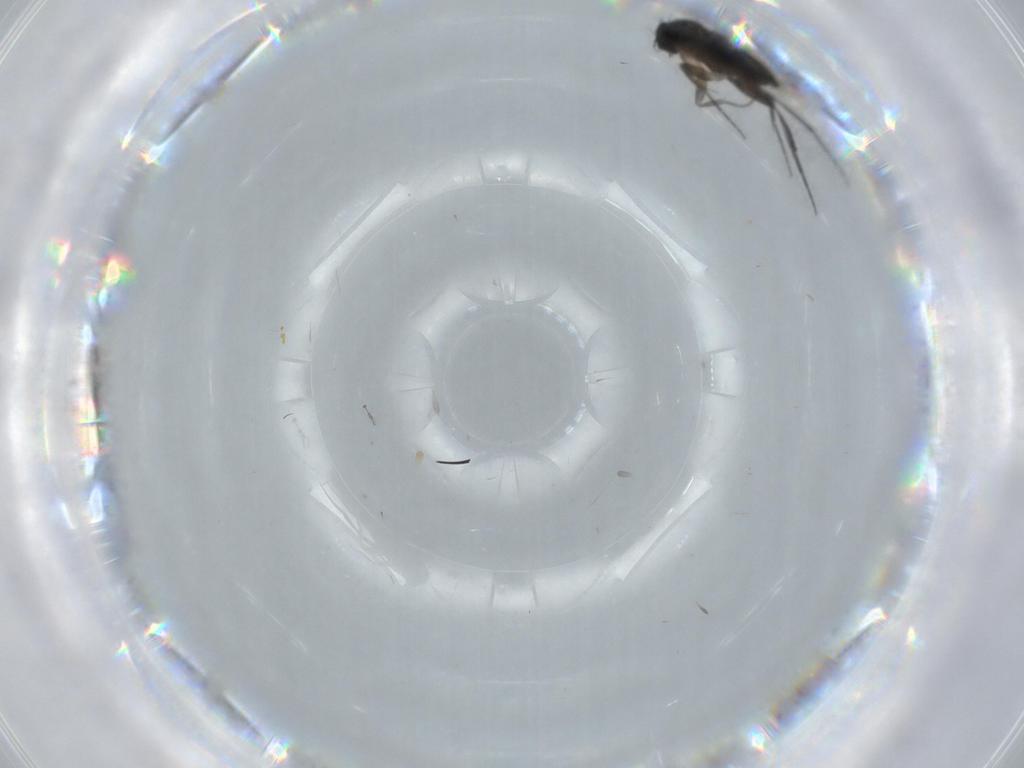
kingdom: Animalia
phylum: Arthropoda
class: Insecta
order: Diptera
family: Phoridae
